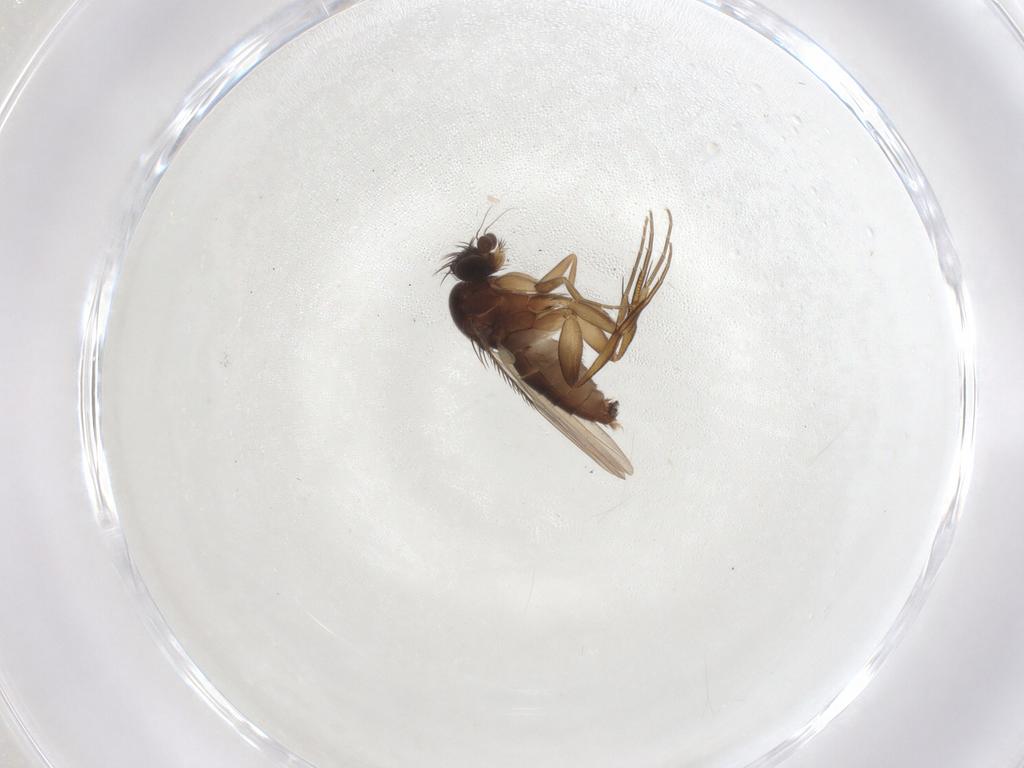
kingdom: Animalia
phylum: Arthropoda
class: Insecta
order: Diptera
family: Phoridae
